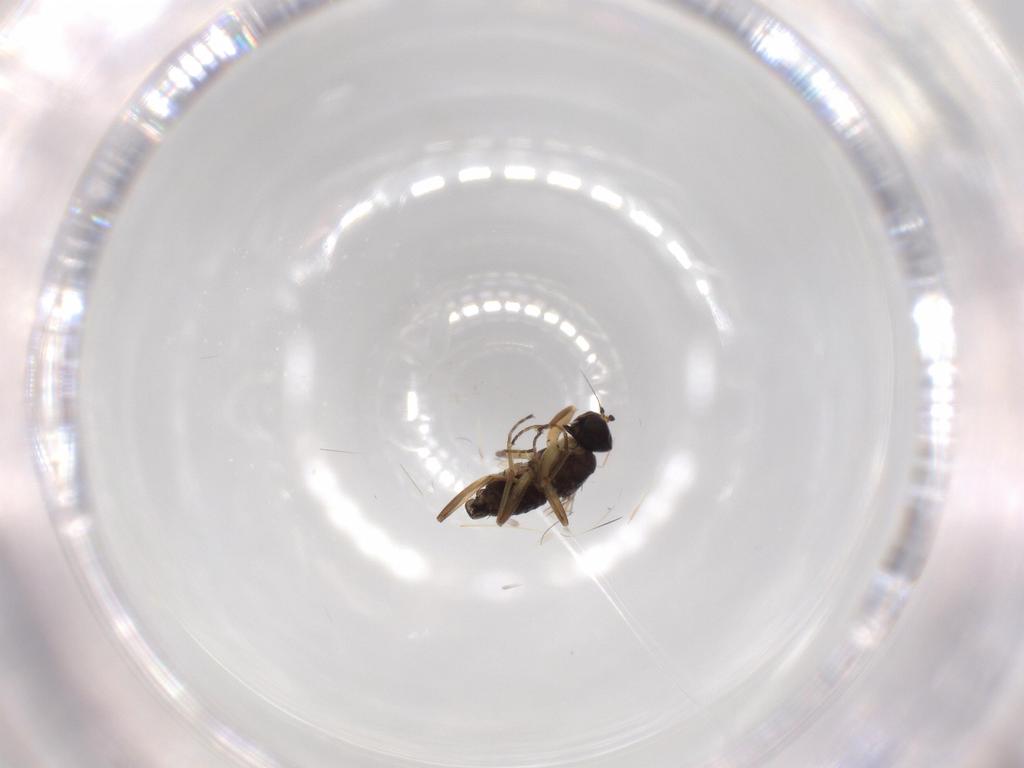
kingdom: Animalia
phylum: Arthropoda
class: Insecta
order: Diptera
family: Hybotidae
